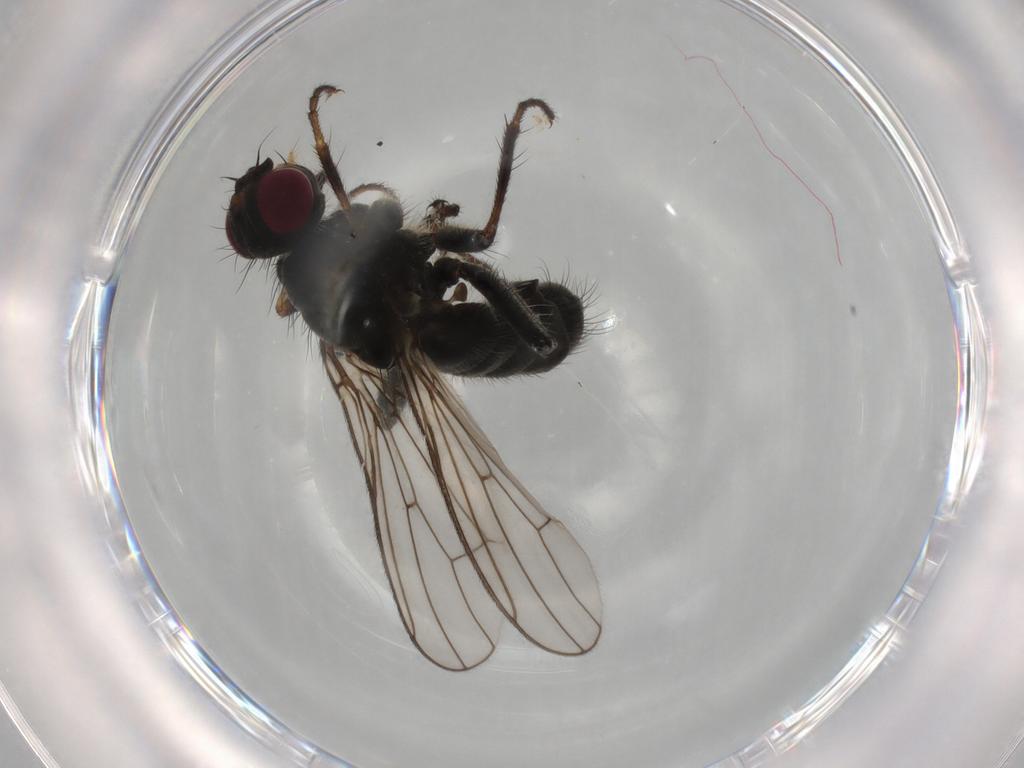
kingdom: Animalia
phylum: Arthropoda
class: Insecta
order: Diptera
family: Scathophagidae
